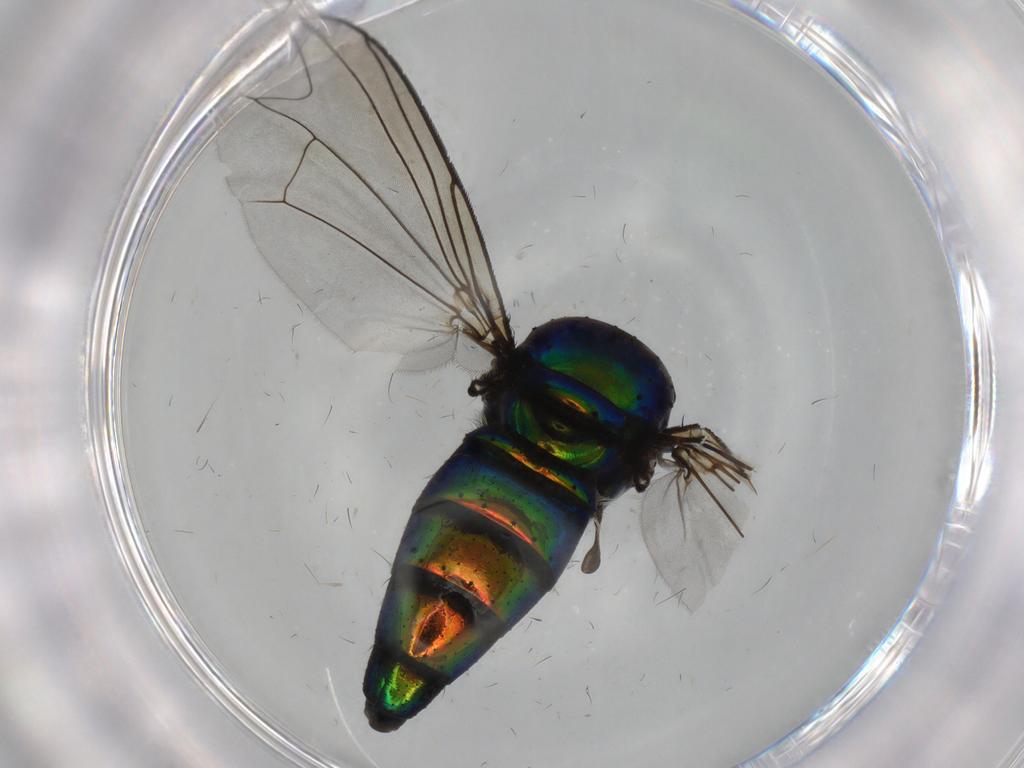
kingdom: Animalia
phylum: Arthropoda
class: Insecta
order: Diptera
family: Dolichopodidae
